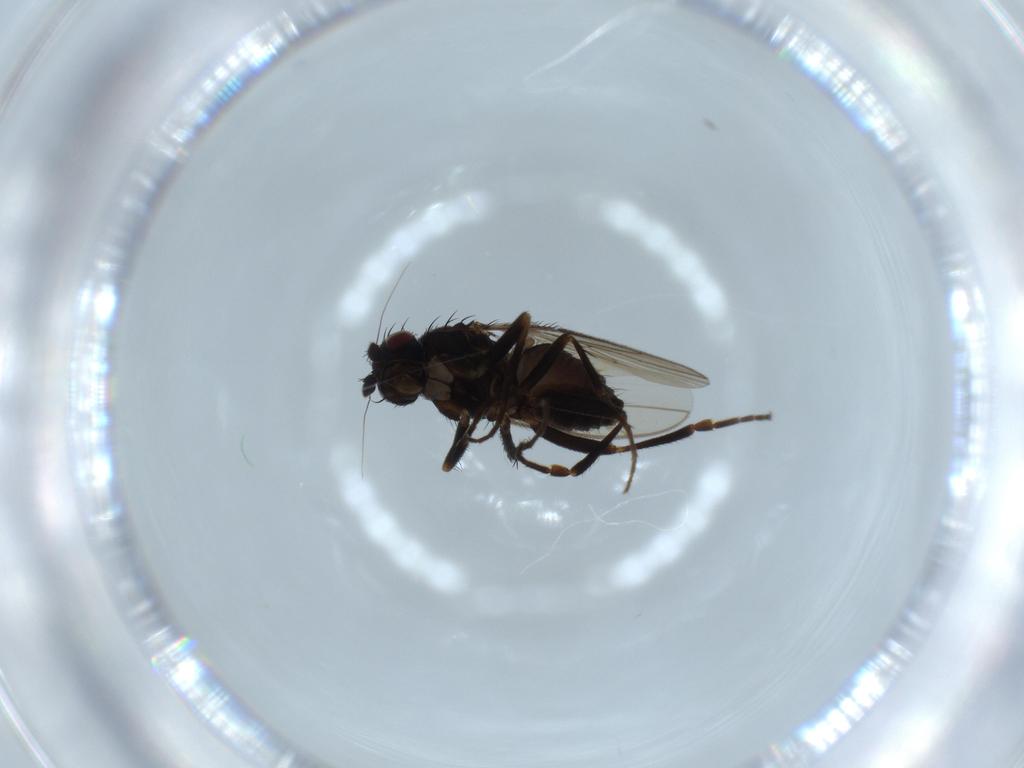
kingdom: Animalia
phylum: Arthropoda
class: Insecta
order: Diptera
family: Sphaeroceridae
